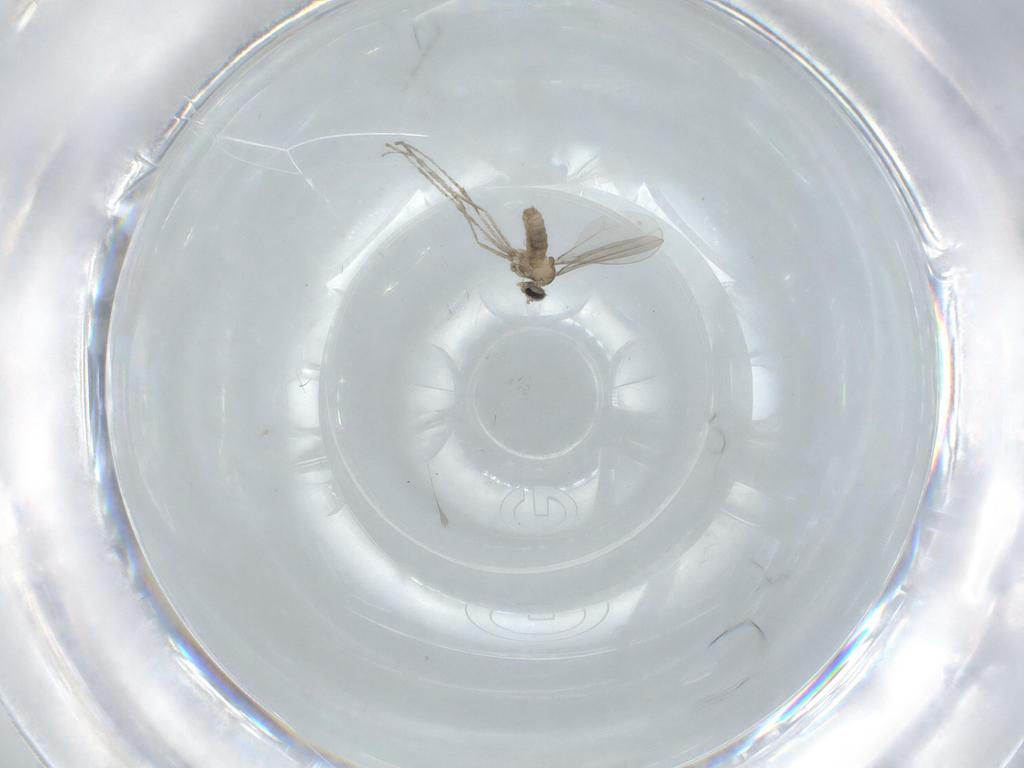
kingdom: Animalia
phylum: Arthropoda
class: Insecta
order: Diptera
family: Cecidomyiidae
